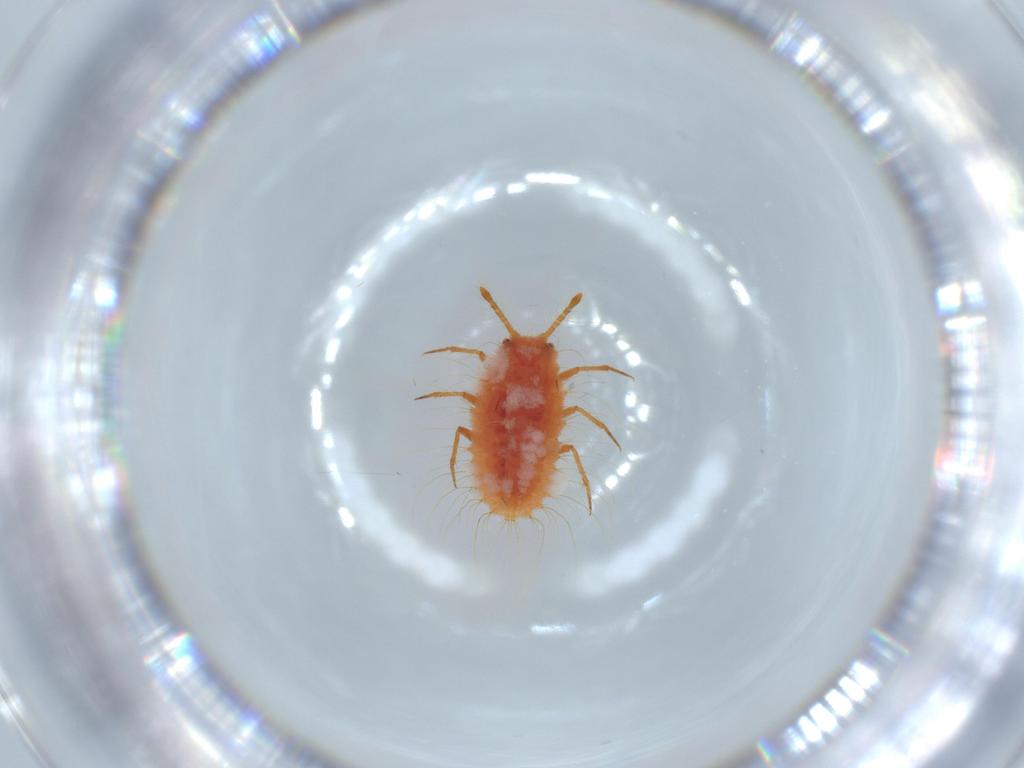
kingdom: Animalia
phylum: Arthropoda
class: Insecta
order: Hemiptera
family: Coccoidea_incertae_sedis
